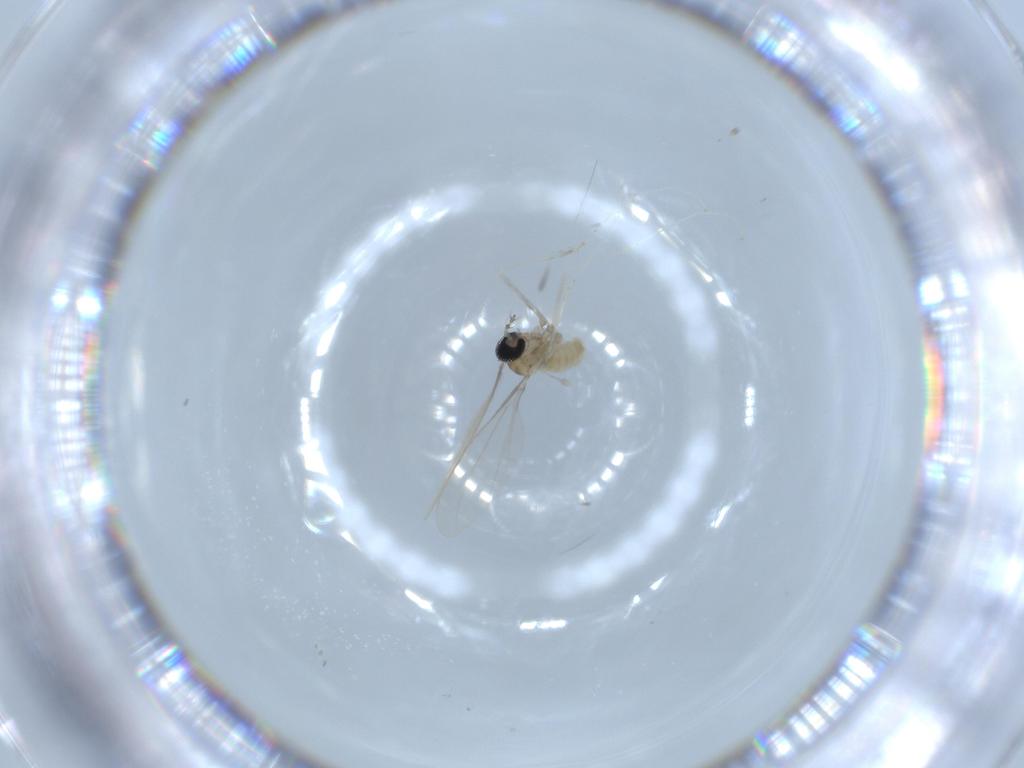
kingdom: Animalia
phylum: Arthropoda
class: Insecta
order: Diptera
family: Cecidomyiidae
